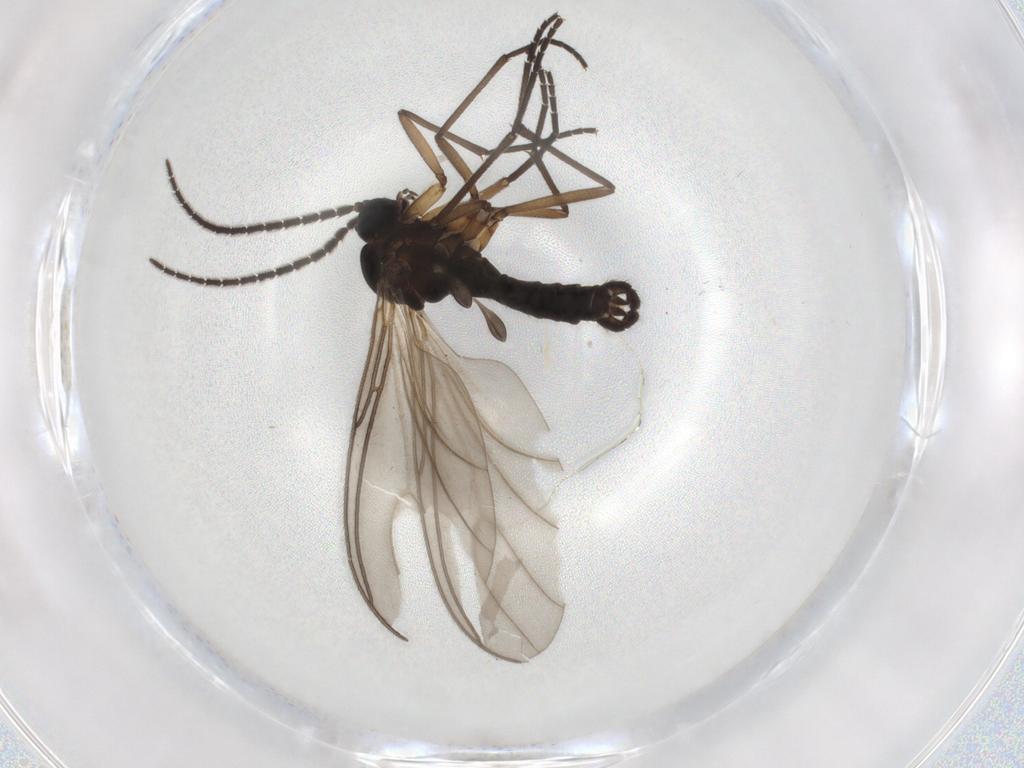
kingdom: Animalia
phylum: Arthropoda
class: Insecta
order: Diptera
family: Sciaridae
